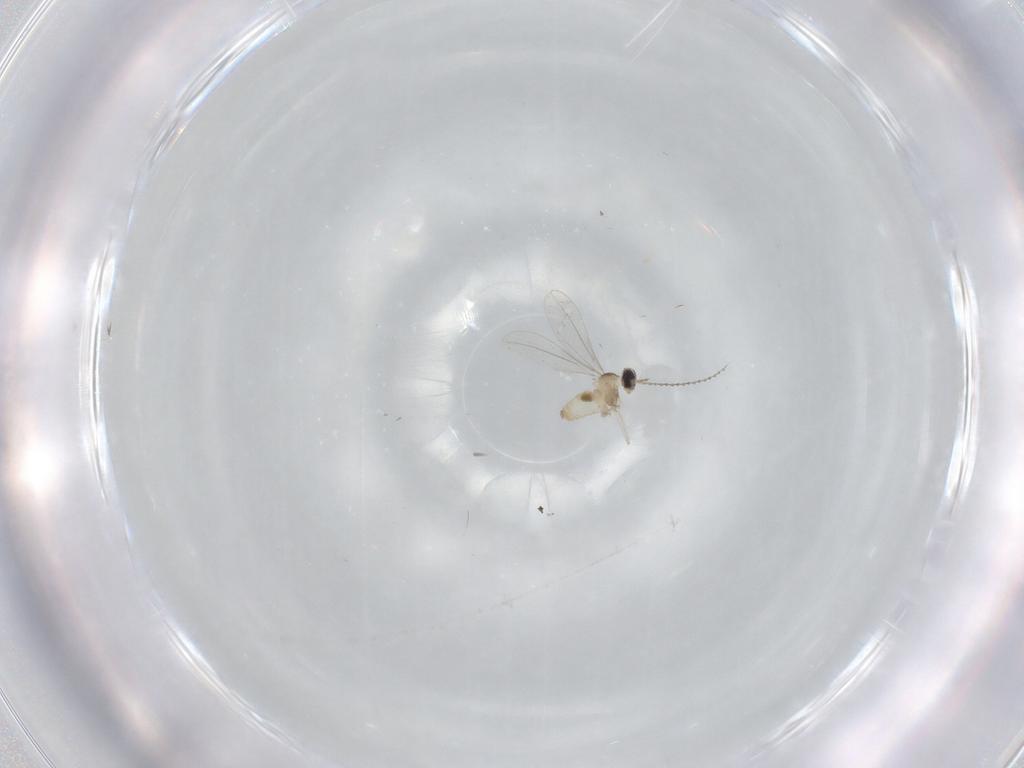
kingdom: Animalia
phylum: Arthropoda
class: Insecta
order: Diptera
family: Cecidomyiidae
